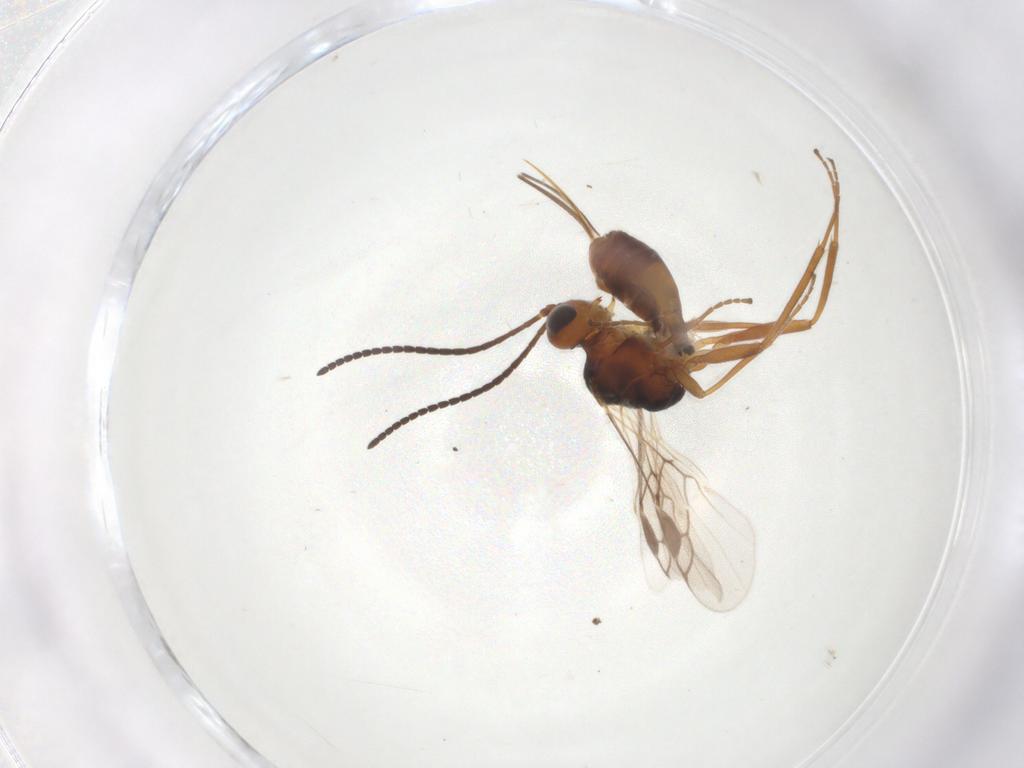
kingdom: Animalia
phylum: Arthropoda
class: Insecta
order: Hymenoptera
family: Braconidae
